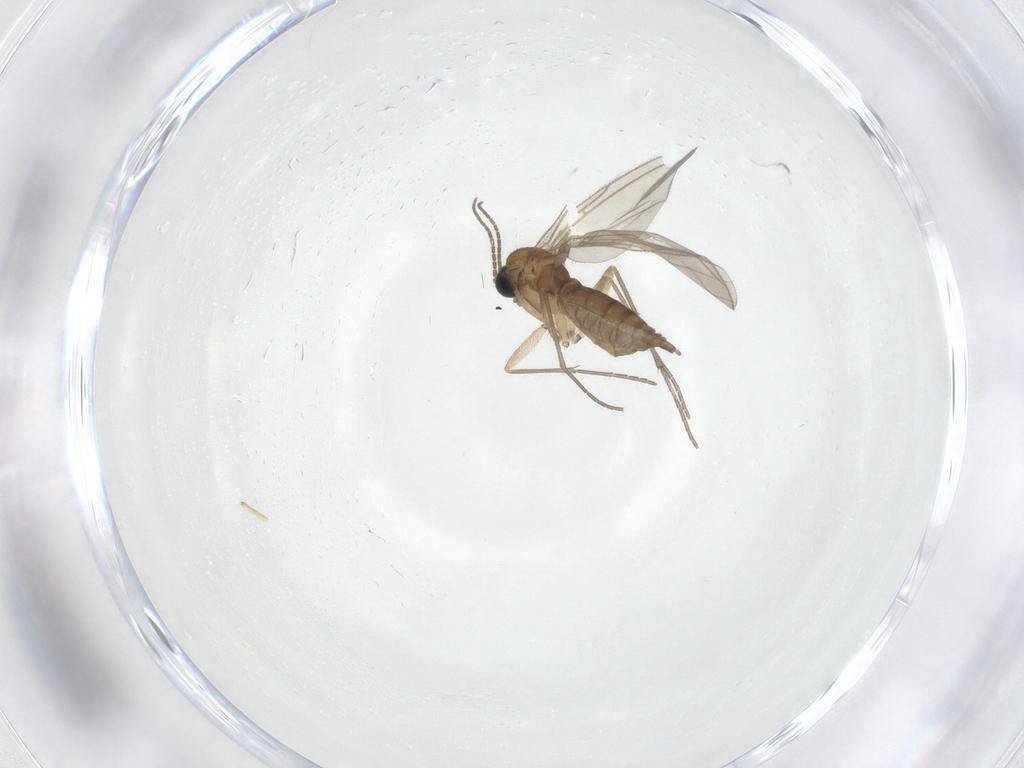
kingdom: Animalia
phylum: Arthropoda
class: Insecta
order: Diptera
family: Sciaridae
